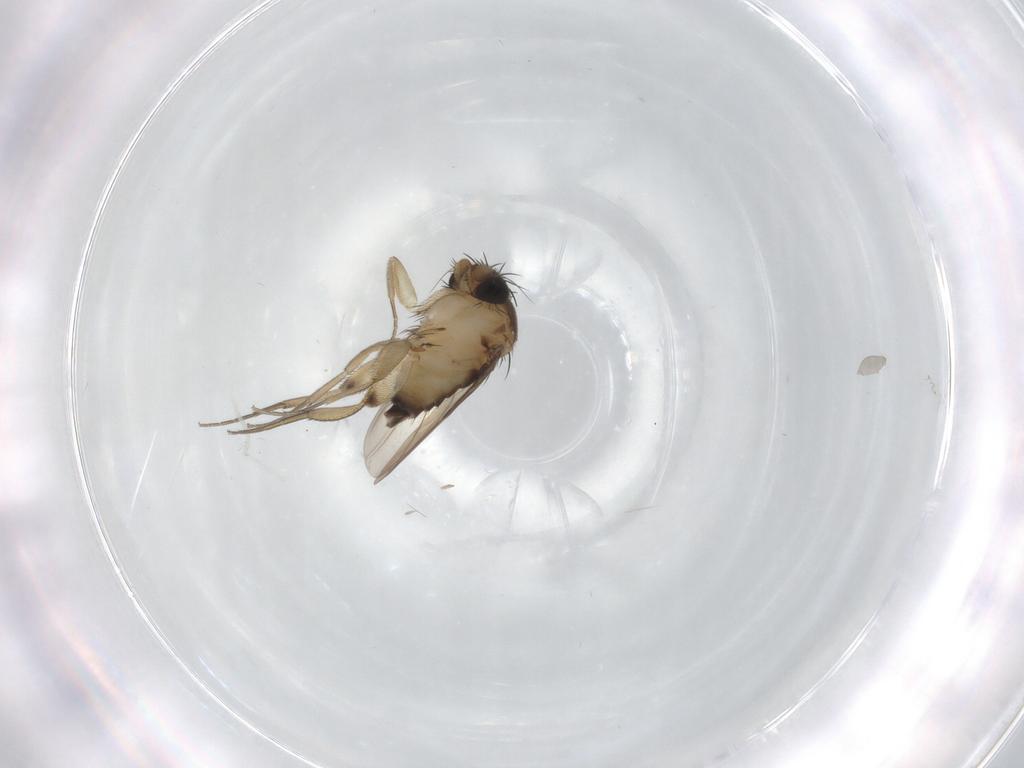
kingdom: Animalia
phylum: Arthropoda
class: Insecta
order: Diptera
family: Phoridae
